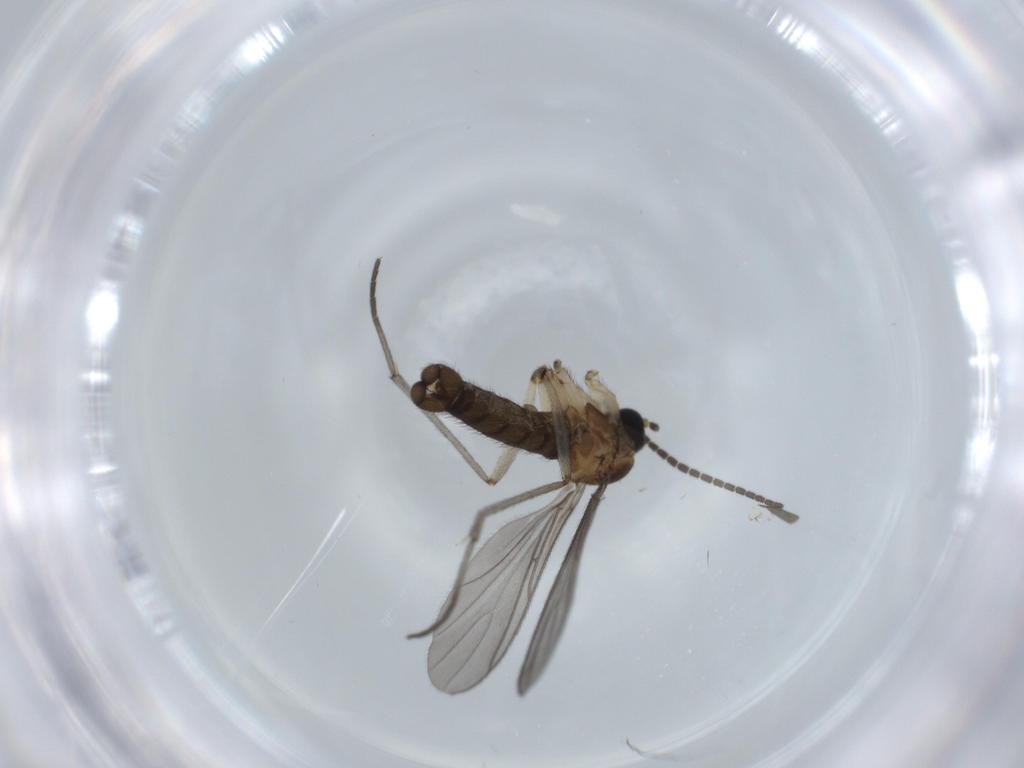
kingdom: Animalia
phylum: Arthropoda
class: Insecta
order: Diptera
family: Sciaridae
